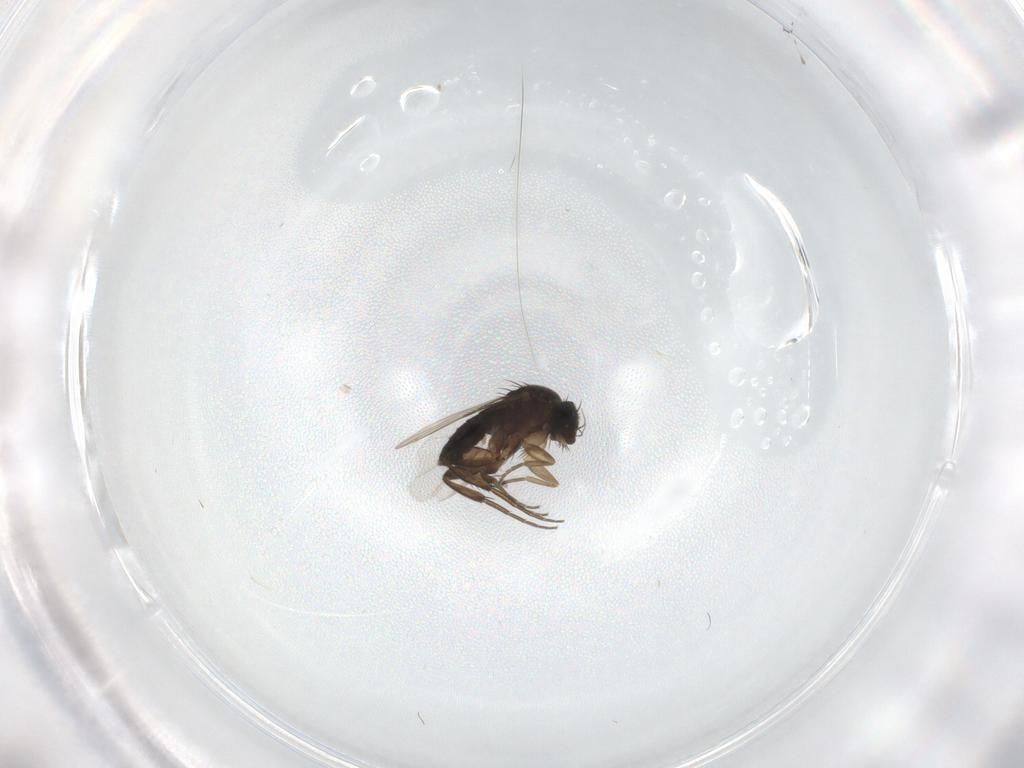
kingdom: Animalia
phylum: Arthropoda
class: Insecta
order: Diptera
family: Phoridae
